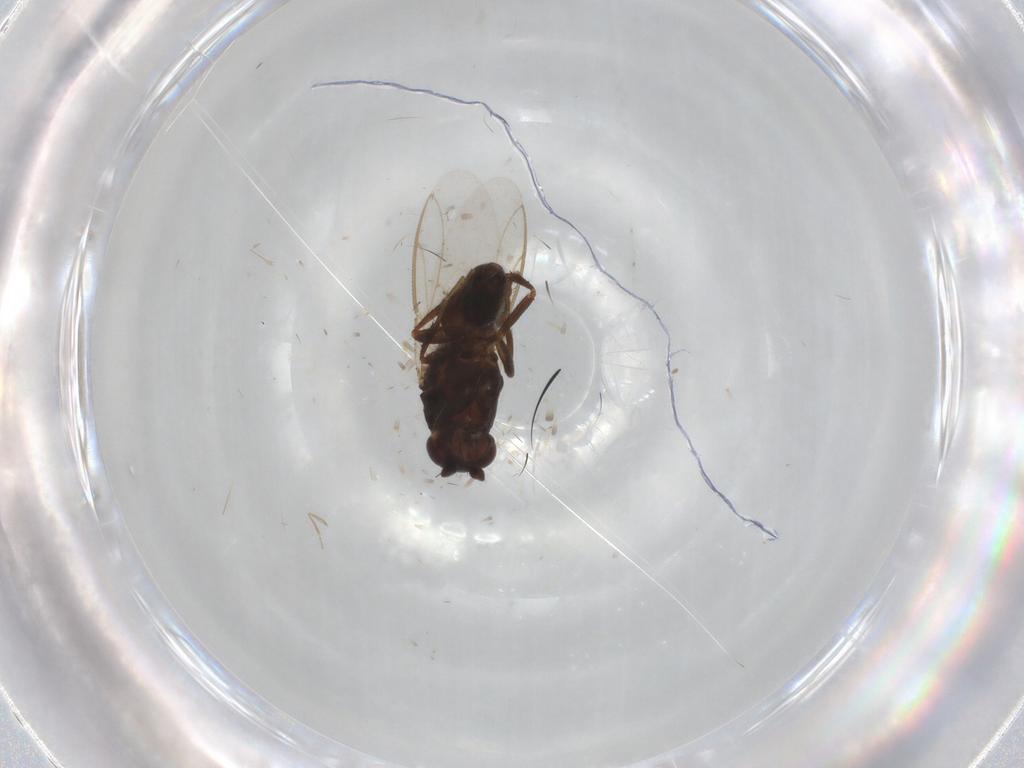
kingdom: Animalia
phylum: Arthropoda
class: Insecta
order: Diptera
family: Sphaeroceridae
